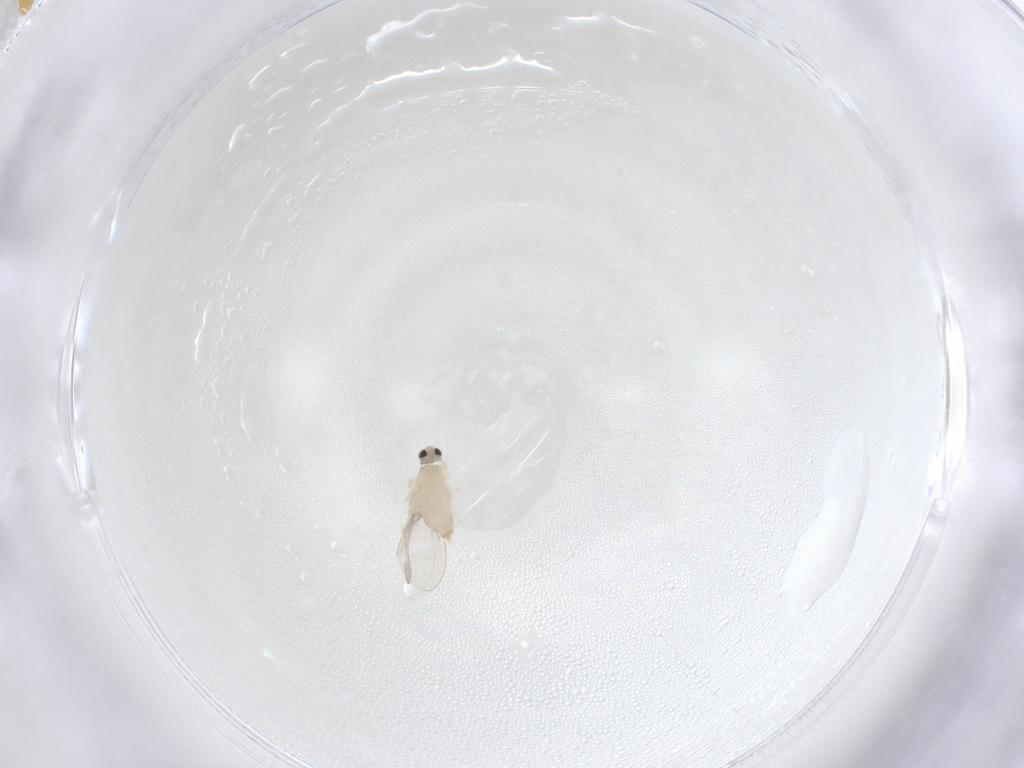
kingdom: Animalia
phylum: Arthropoda
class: Insecta
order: Diptera
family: Cecidomyiidae
